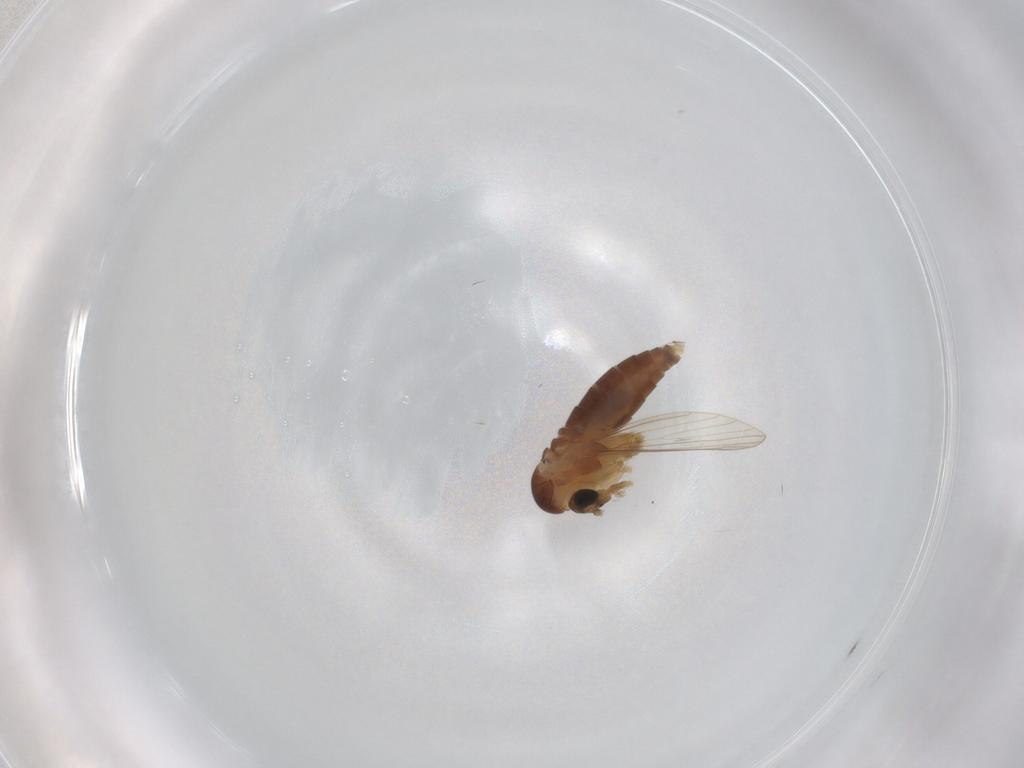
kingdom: Animalia
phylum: Arthropoda
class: Insecta
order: Diptera
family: Psychodidae
